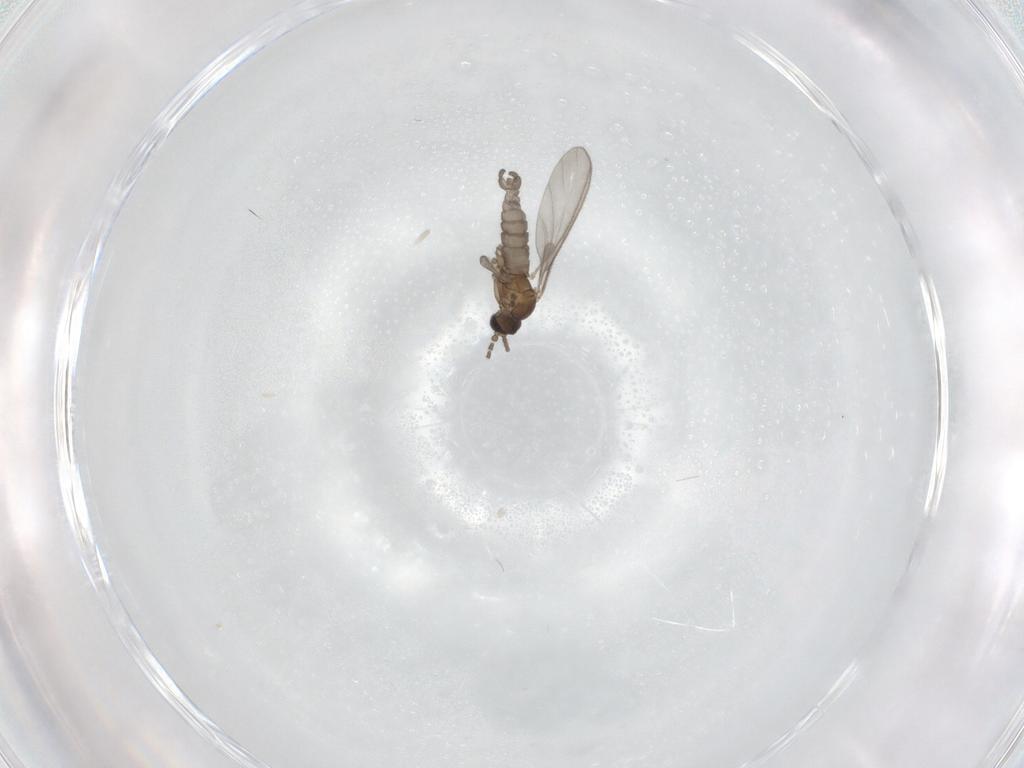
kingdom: Animalia
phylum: Arthropoda
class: Insecta
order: Diptera
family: Sciaridae
